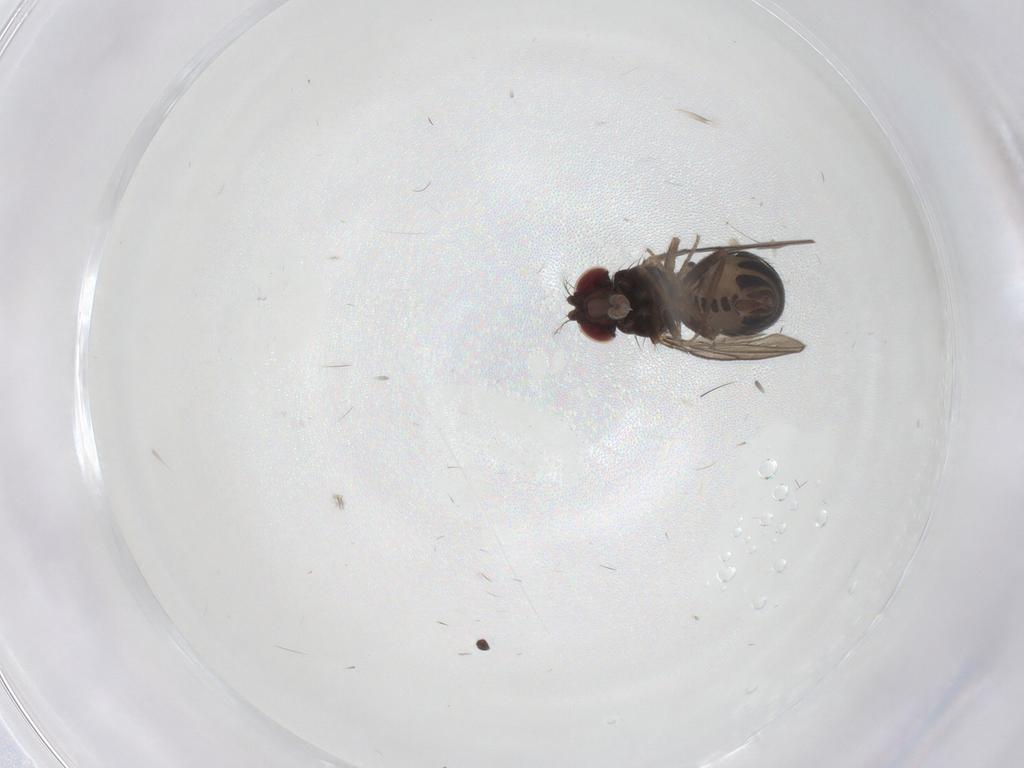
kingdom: Animalia
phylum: Arthropoda
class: Insecta
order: Diptera
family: Drosophilidae
